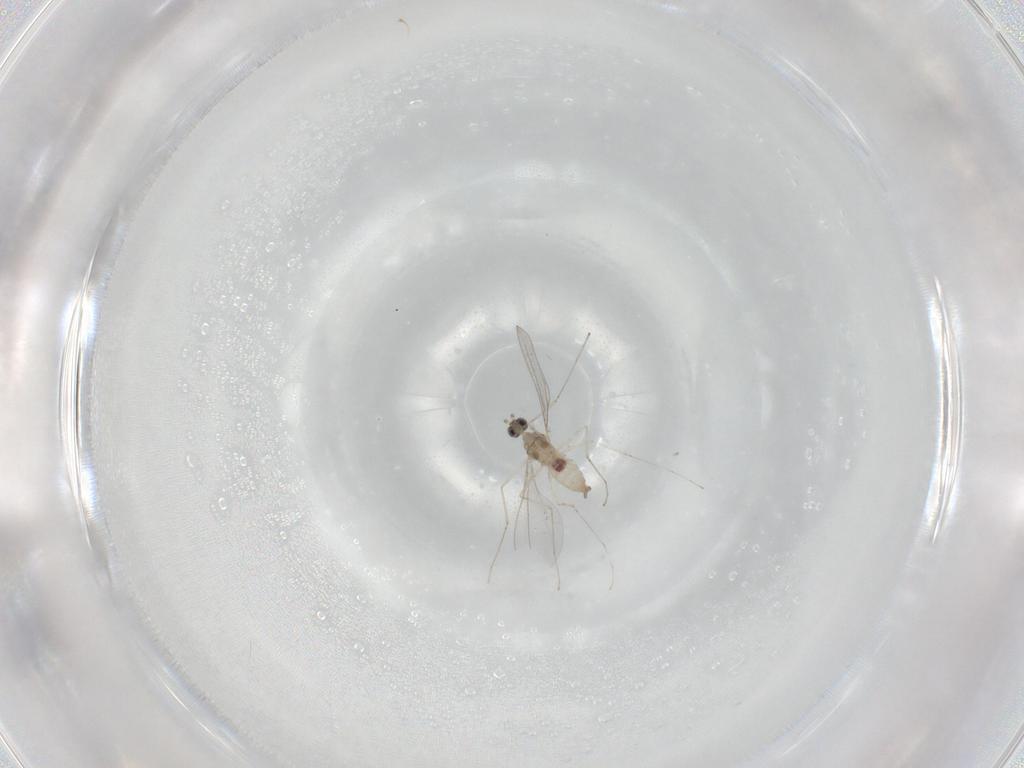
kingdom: Animalia
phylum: Arthropoda
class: Insecta
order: Diptera
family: Cecidomyiidae
